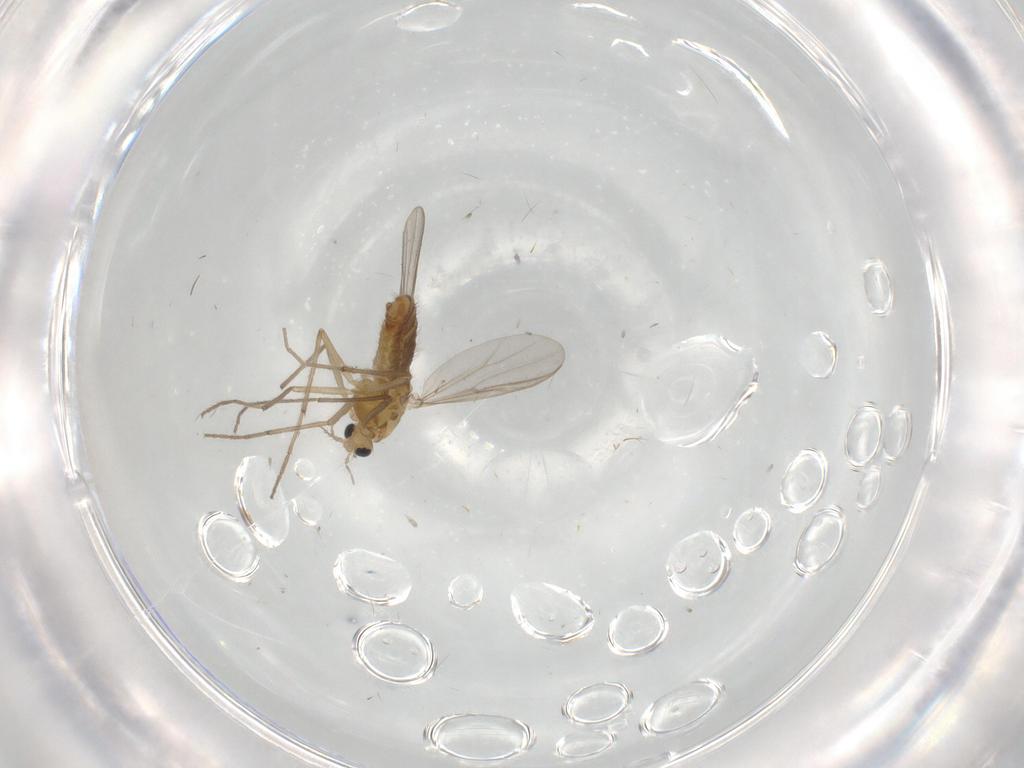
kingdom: Animalia
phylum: Arthropoda
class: Insecta
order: Diptera
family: Chironomidae
